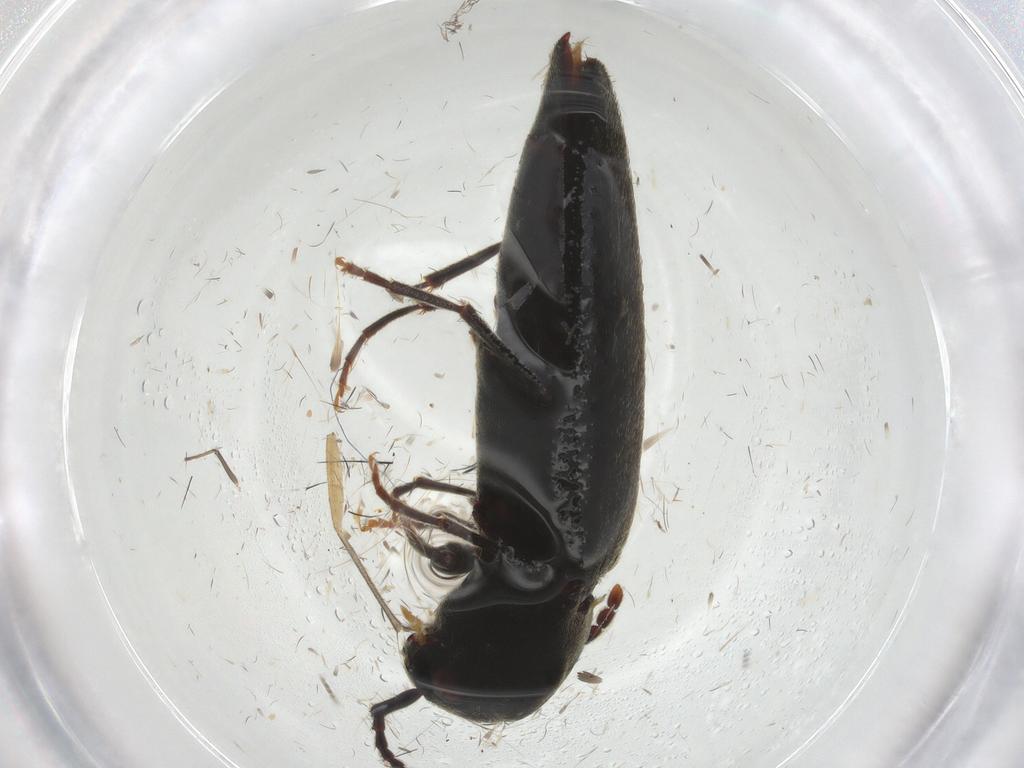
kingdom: Animalia
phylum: Arthropoda
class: Insecta
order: Coleoptera
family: Eucnemidae
